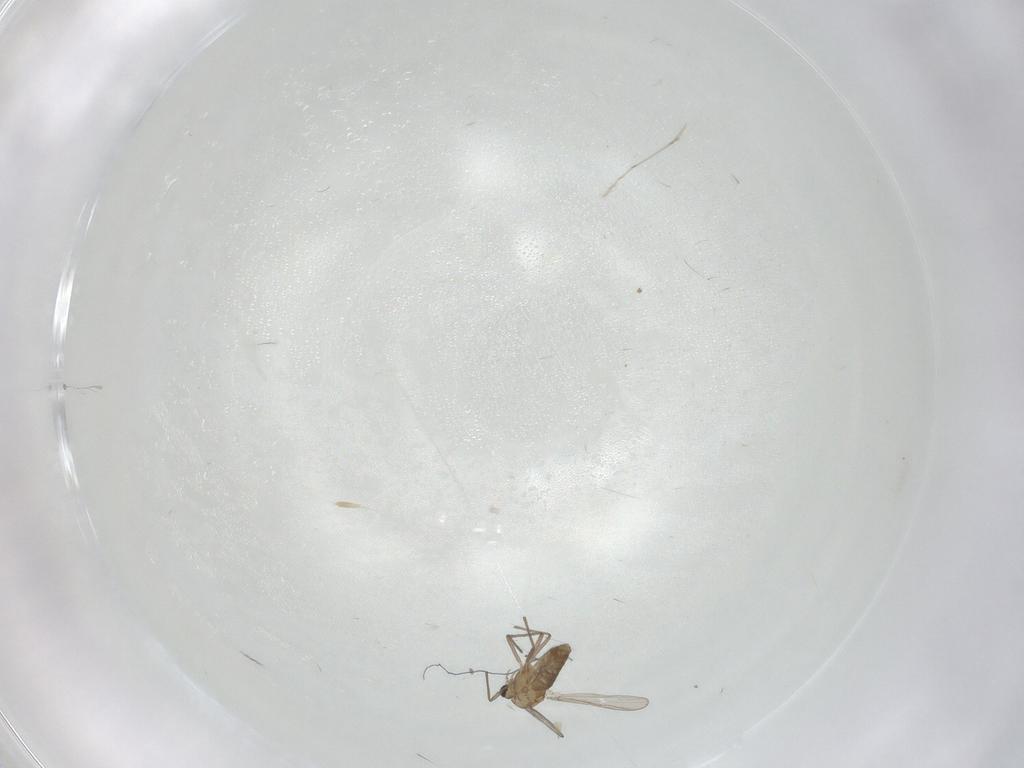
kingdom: Animalia
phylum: Arthropoda
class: Insecta
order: Diptera
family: Chironomidae
